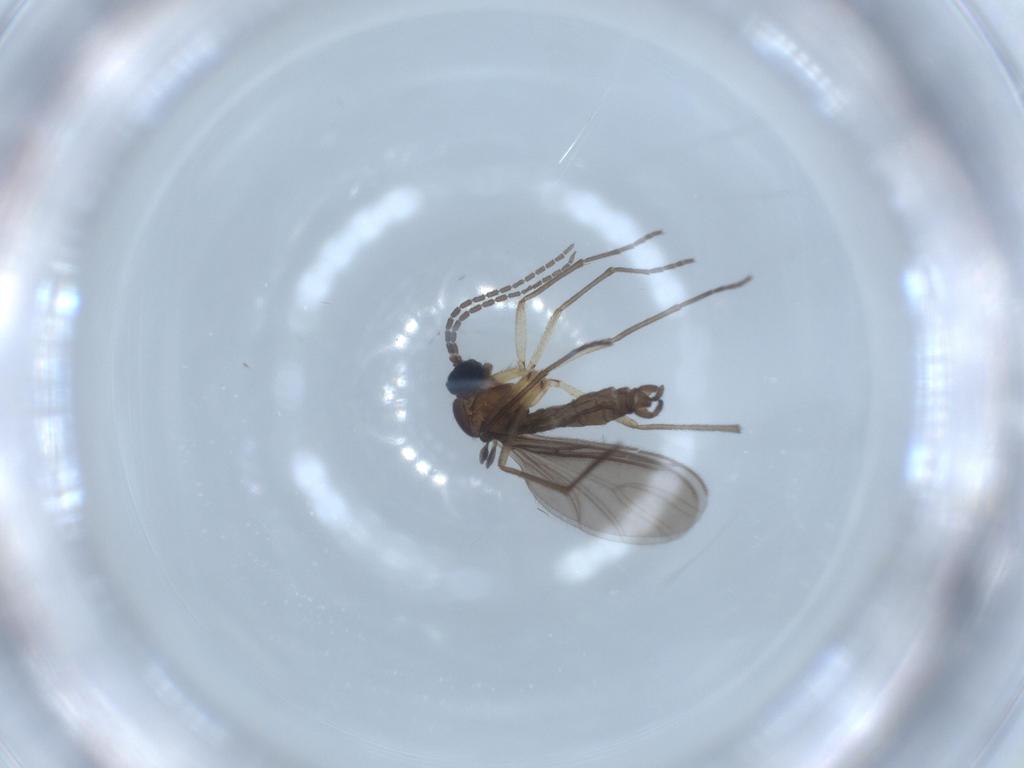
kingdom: Animalia
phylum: Arthropoda
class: Insecta
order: Diptera
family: Sciaridae
